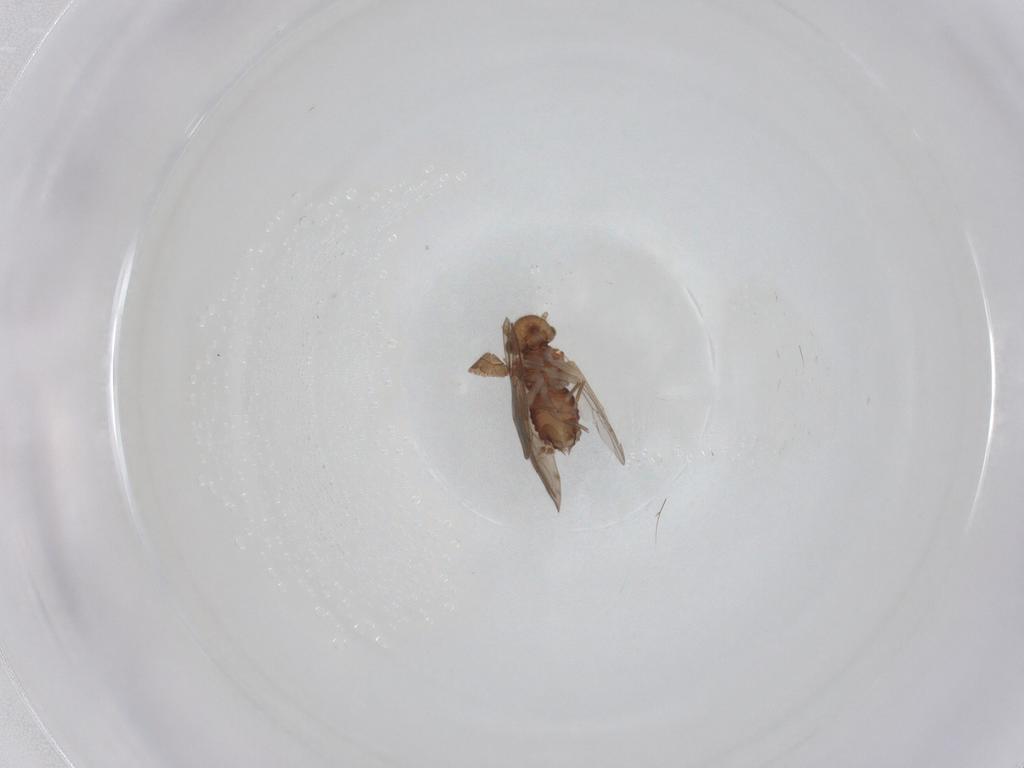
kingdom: Animalia
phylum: Arthropoda
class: Insecta
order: Psocodea
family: Ectopsocidae
